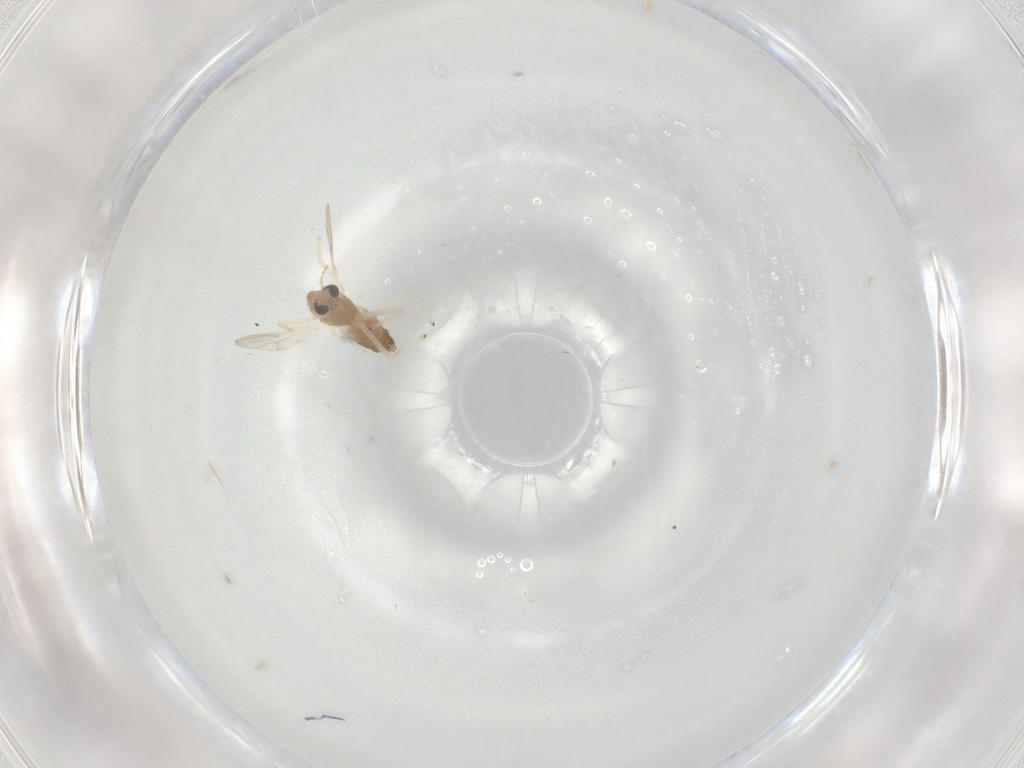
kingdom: Animalia
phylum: Arthropoda
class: Insecta
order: Diptera
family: Chironomidae
